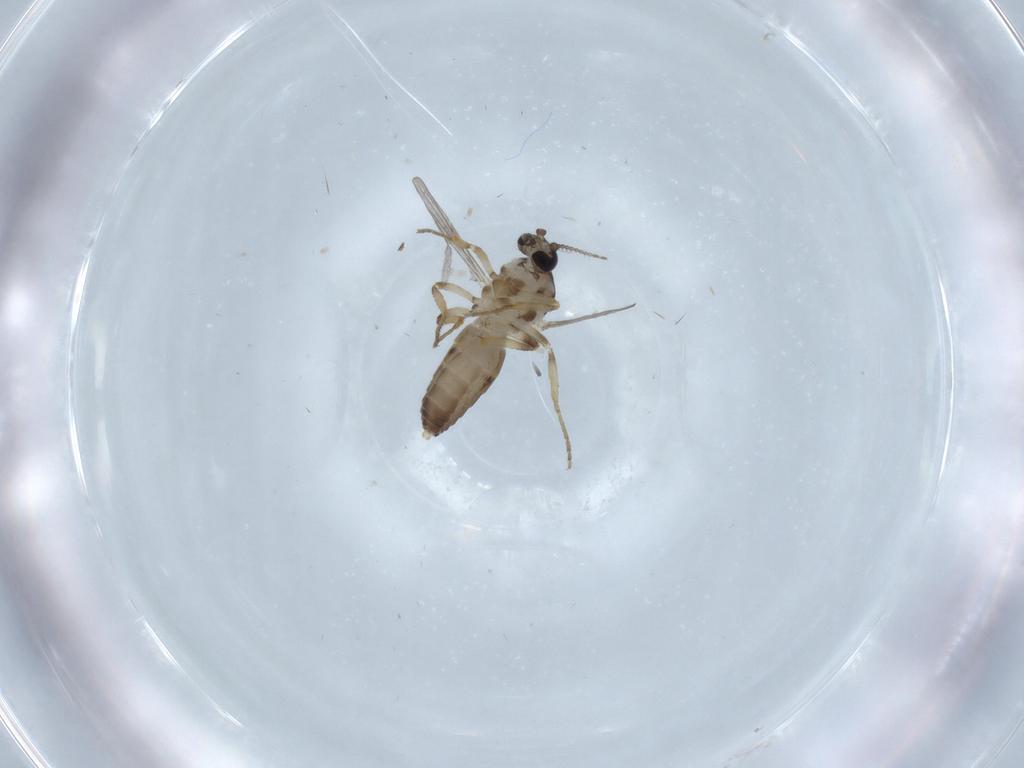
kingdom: Animalia
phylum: Arthropoda
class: Insecta
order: Diptera
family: Ceratopogonidae
